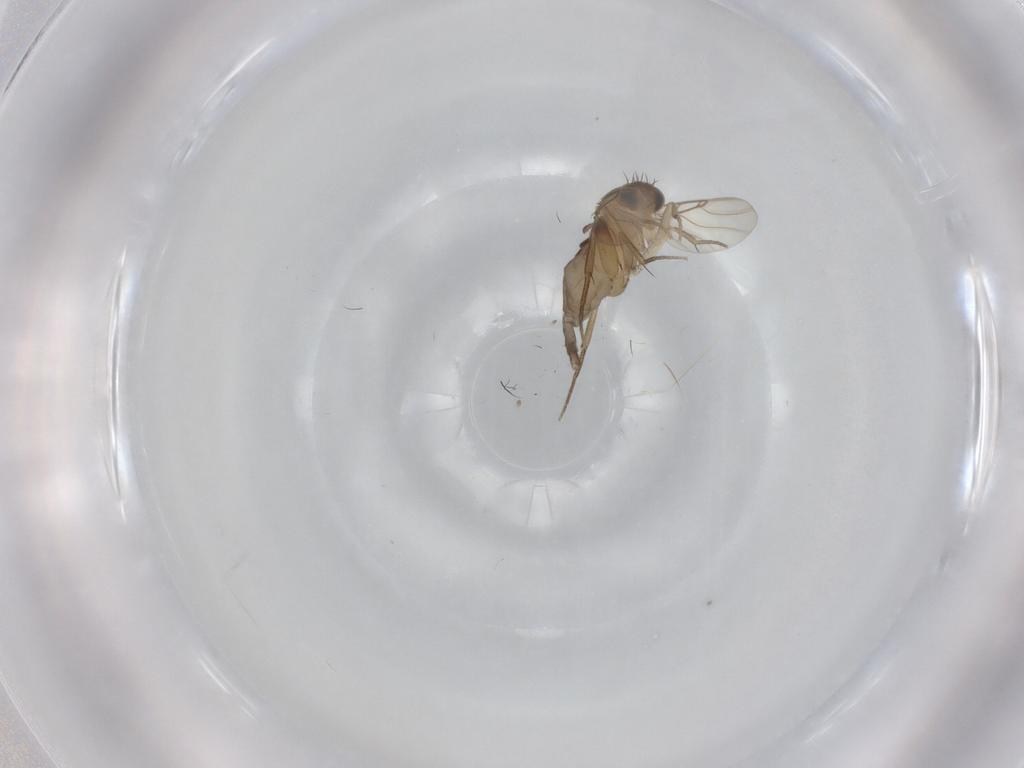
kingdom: Animalia
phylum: Arthropoda
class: Insecta
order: Diptera
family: Phoridae
